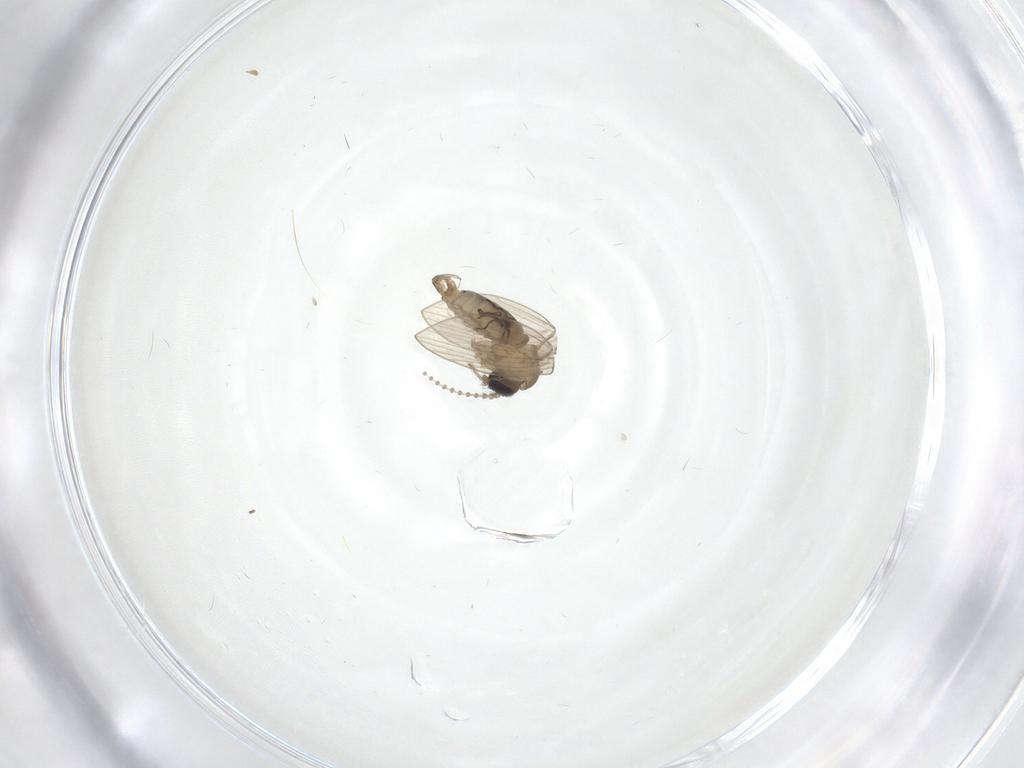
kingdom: Animalia
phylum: Arthropoda
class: Insecta
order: Diptera
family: Psychodidae
